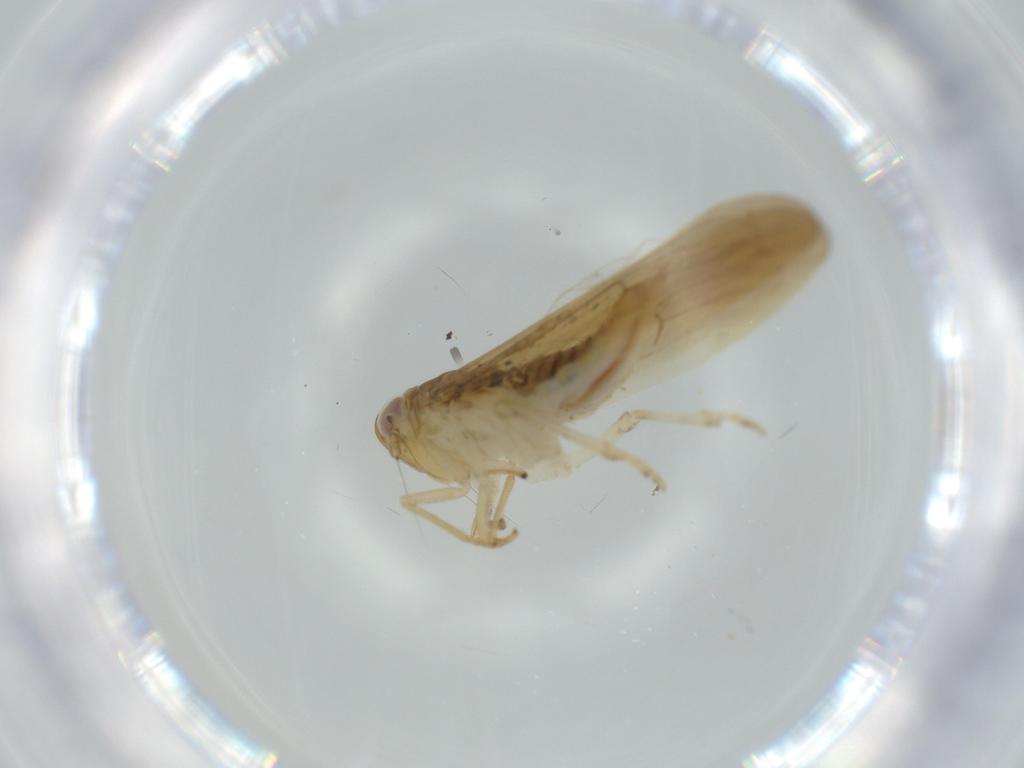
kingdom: Animalia
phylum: Arthropoda
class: Insecta
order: Hemiptera
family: Delphacidae
